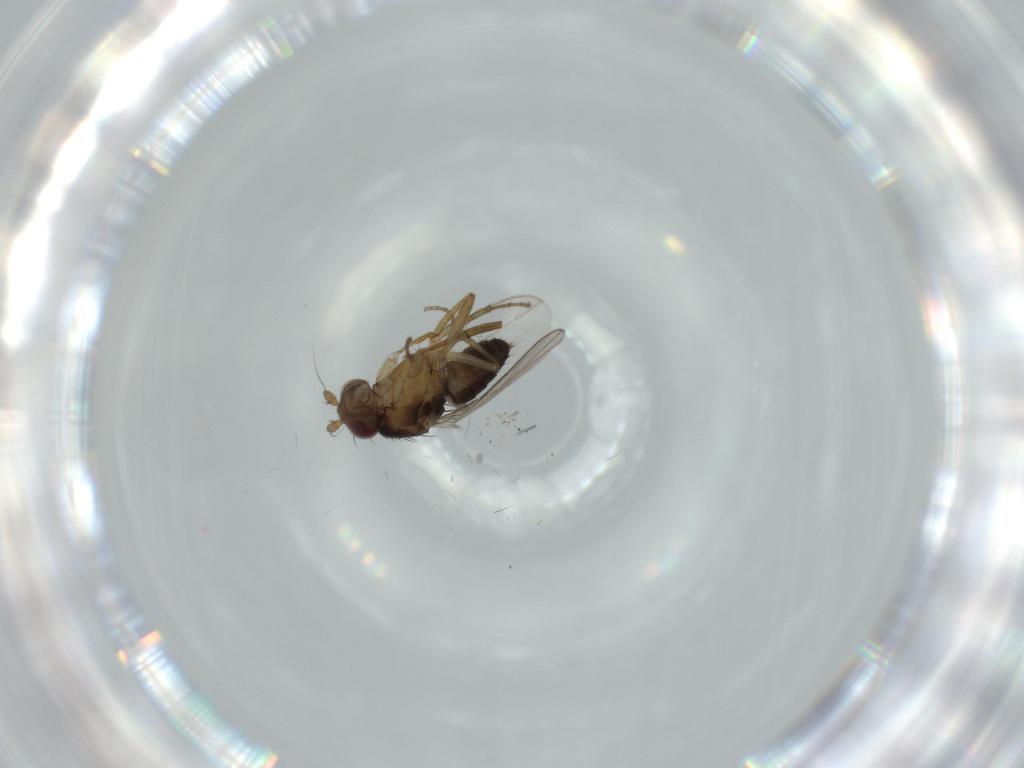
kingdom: Animalia
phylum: Arthropoda
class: Insecta
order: Diptera
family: Sphaeroceridae
